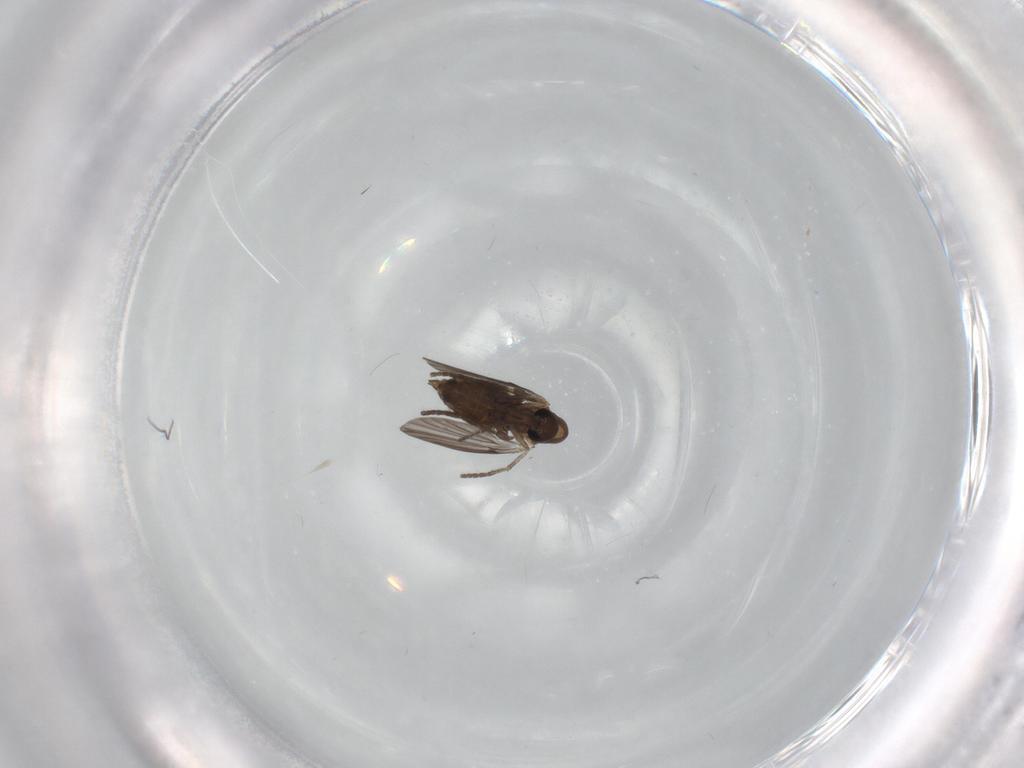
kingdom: Animalia
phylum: Arthropoda
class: Insecta
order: Diptera
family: Psychodidae
